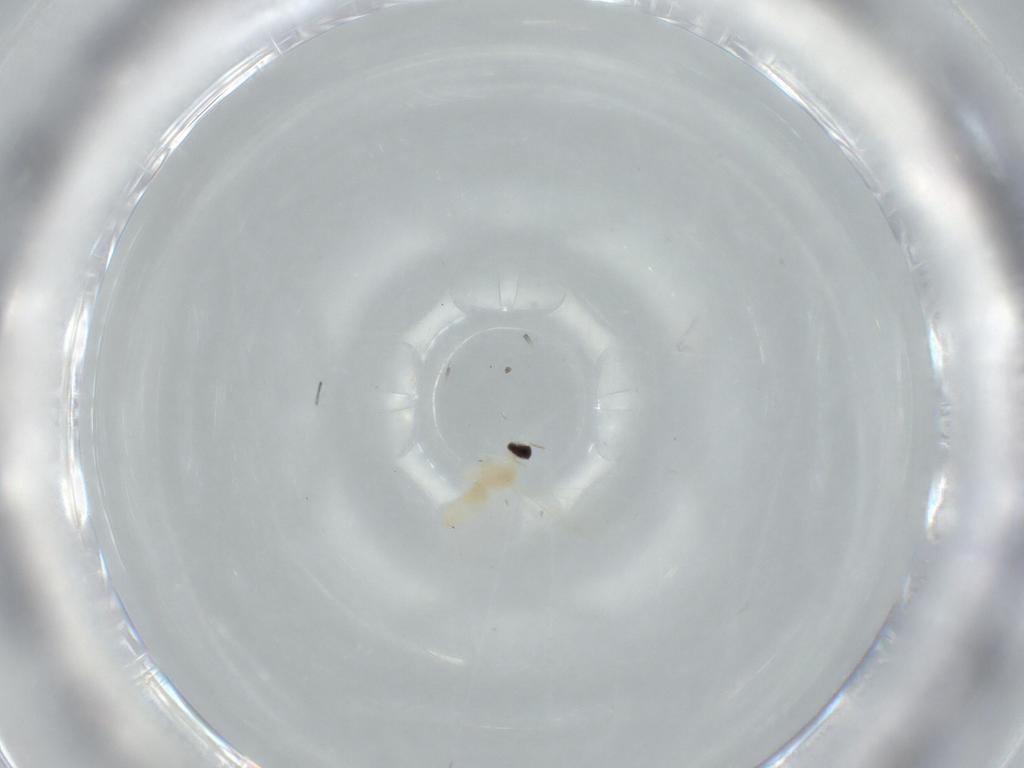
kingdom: Animalia
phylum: Arthropoda
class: Insecta
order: Diptera
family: Cecidomyiidae
